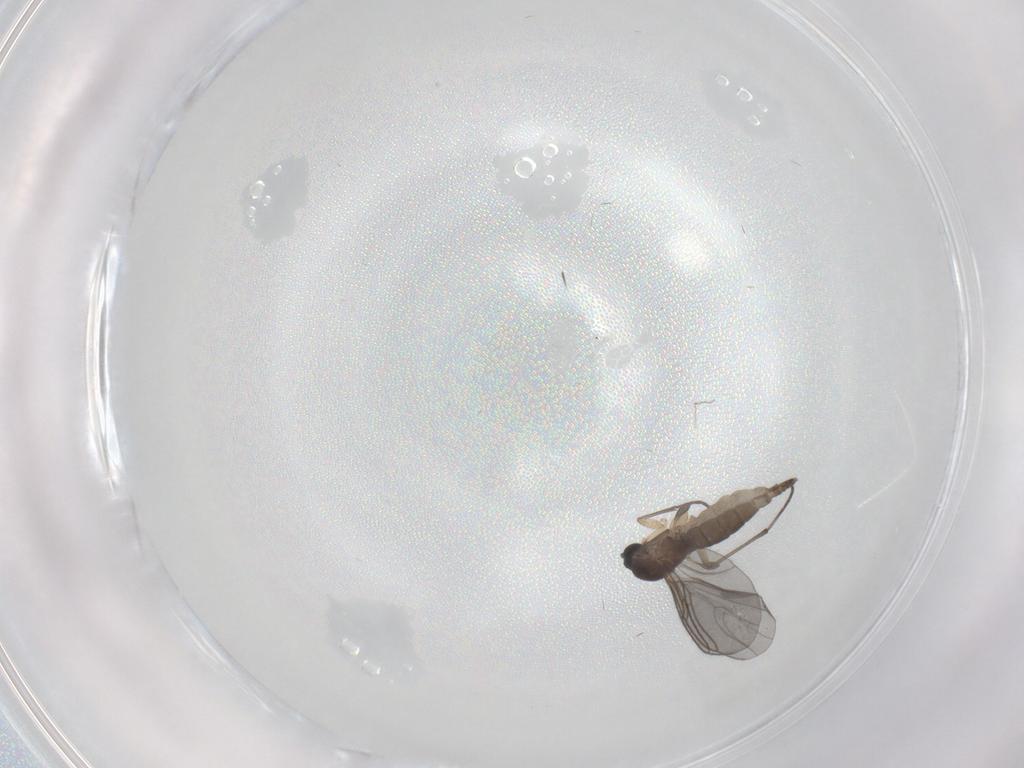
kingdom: Animalia
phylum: Arthropoda
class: Insecta
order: Diptera
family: Sciaridae
